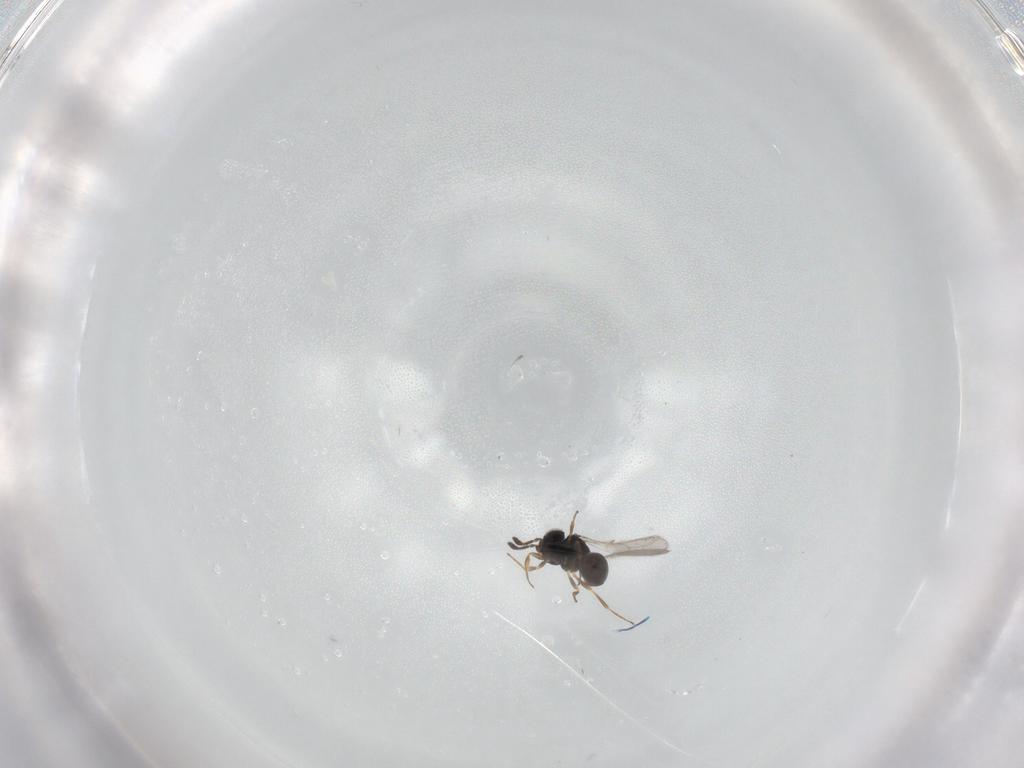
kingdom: Animalia
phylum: Arthropoda
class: Insecta
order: Hymenoptera
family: Scelionidae
